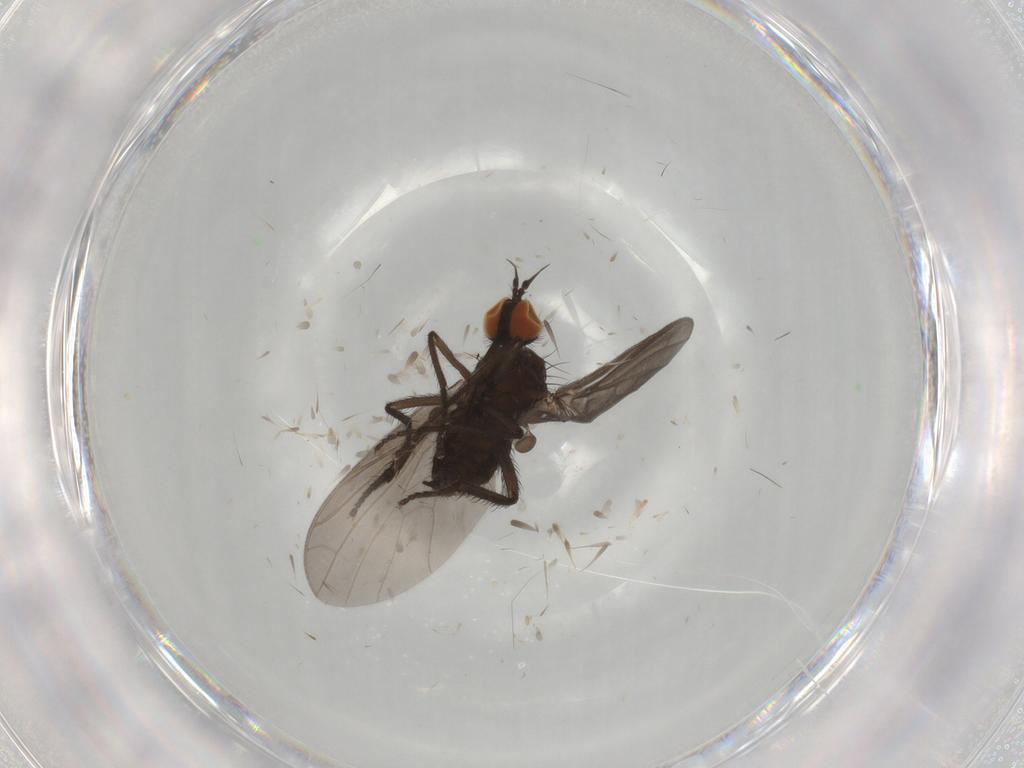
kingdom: Animalia
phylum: Arthropoda
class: Insecta
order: Diptera
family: Empididae
